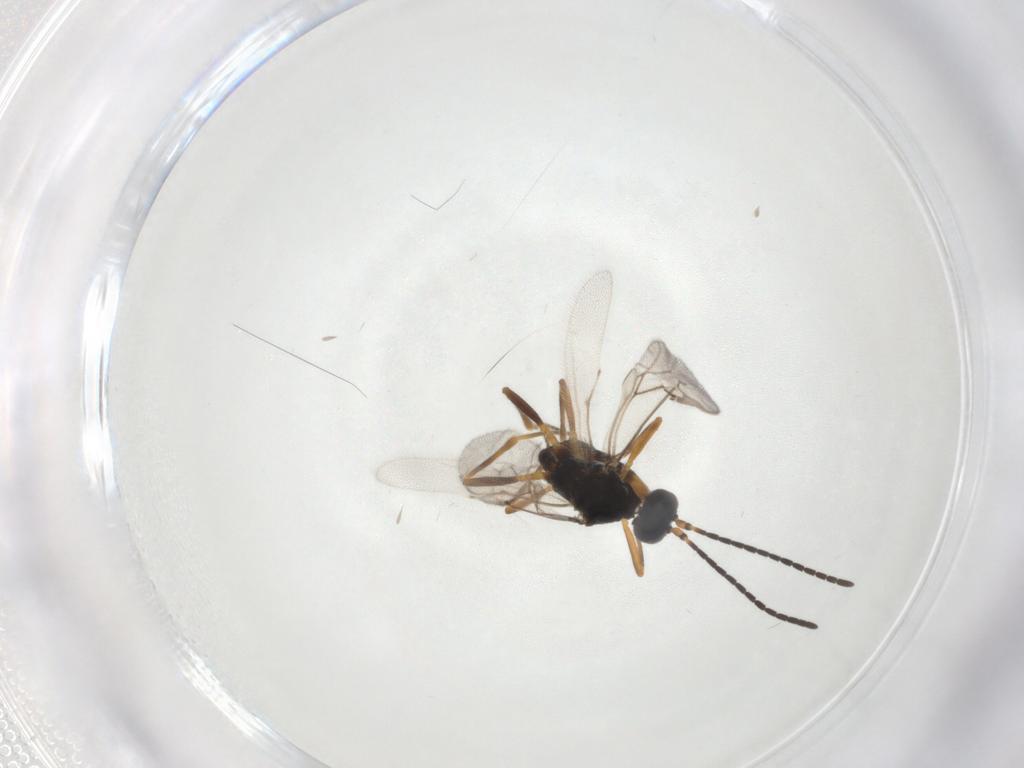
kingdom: Animalia
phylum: Arthropoda
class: Insecta
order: Hymenoptera
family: Braconidae
